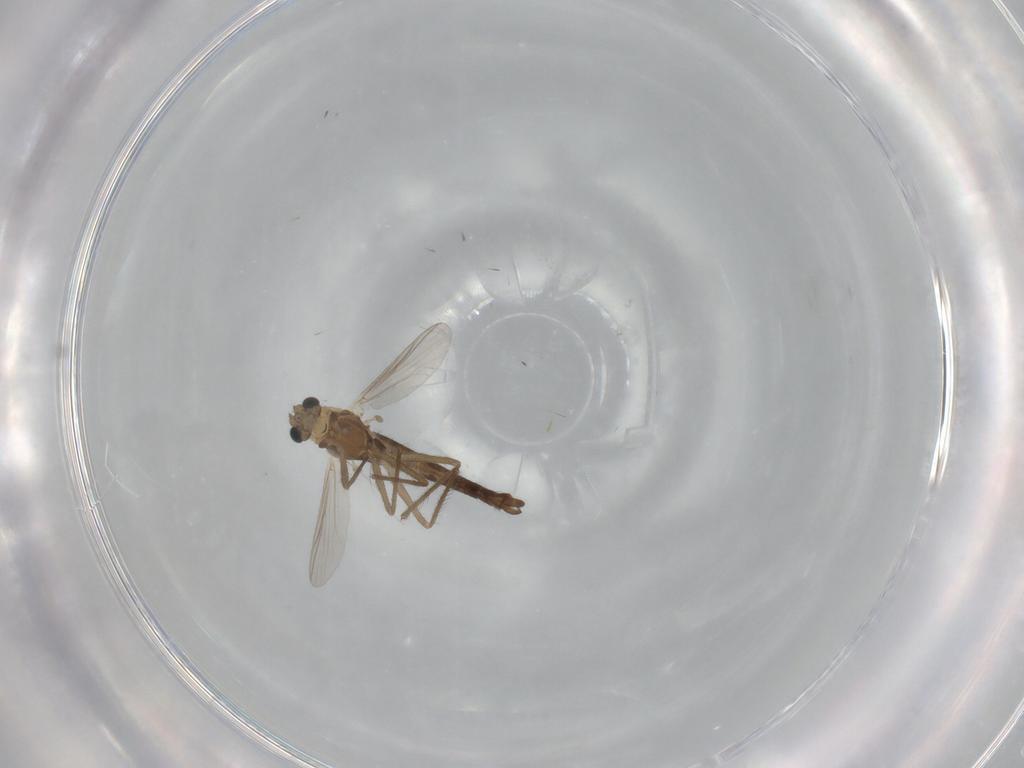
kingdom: Animalia
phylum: Arthropoda
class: Insecta
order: Diptera
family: Chironomidae
